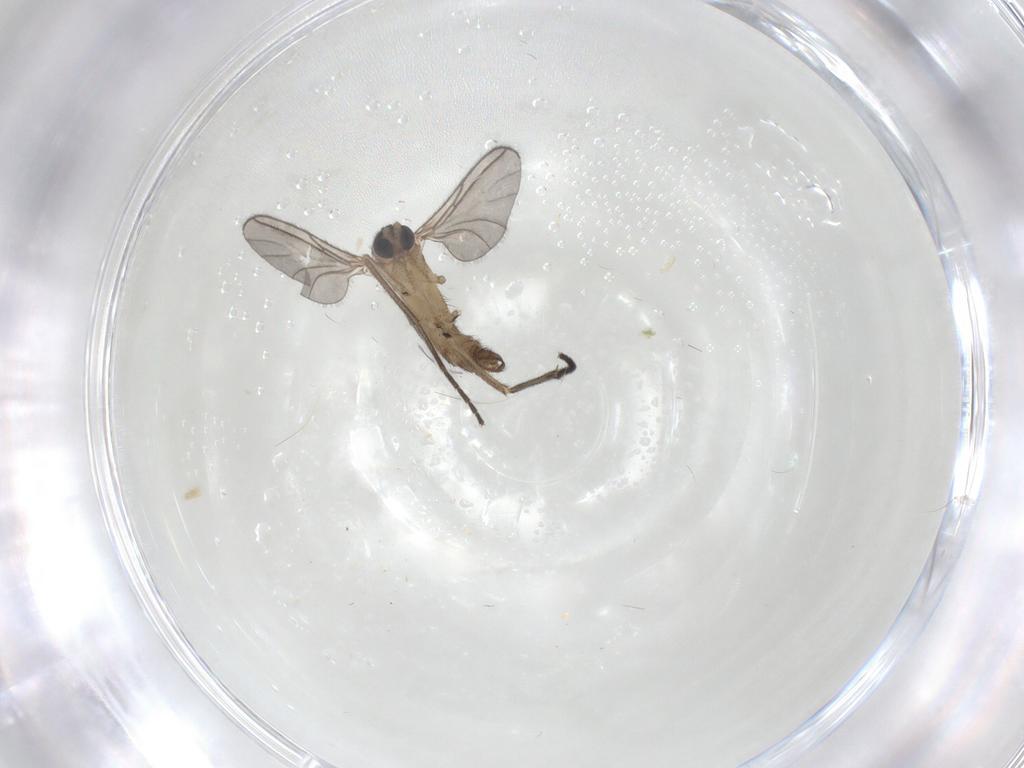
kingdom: Animalia
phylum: Arthropoda
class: Insecta
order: Diptera
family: Sciaridae
